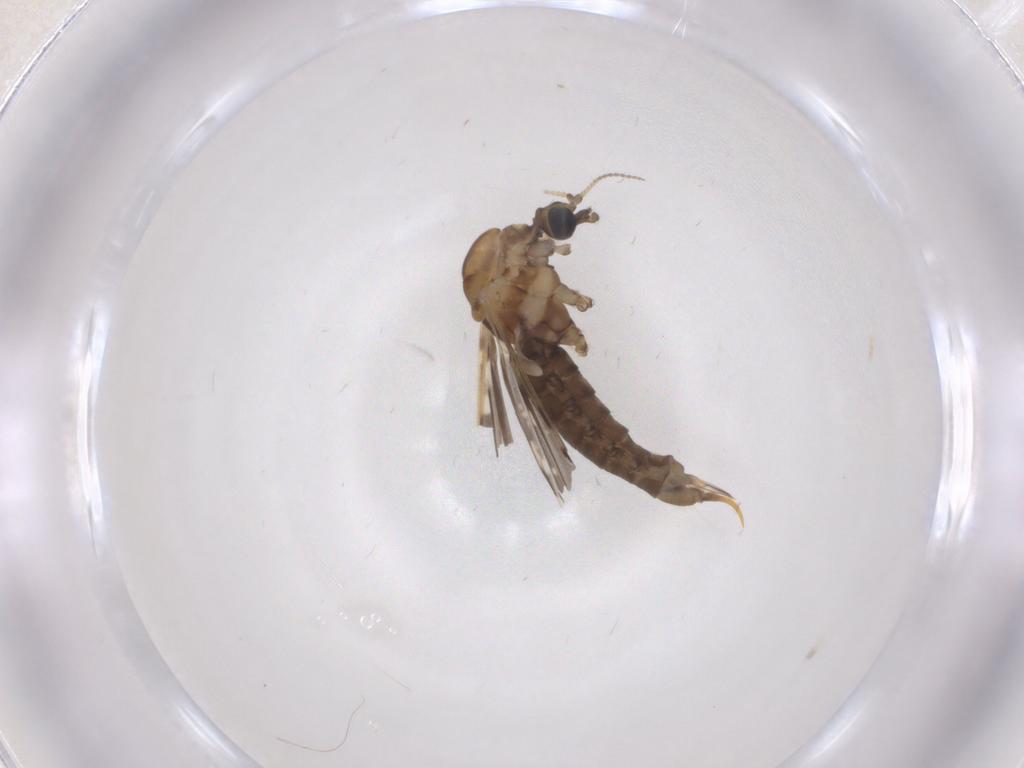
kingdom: Animalia
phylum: Arthropoda
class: Insecta
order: Diptera
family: Limoniidae
